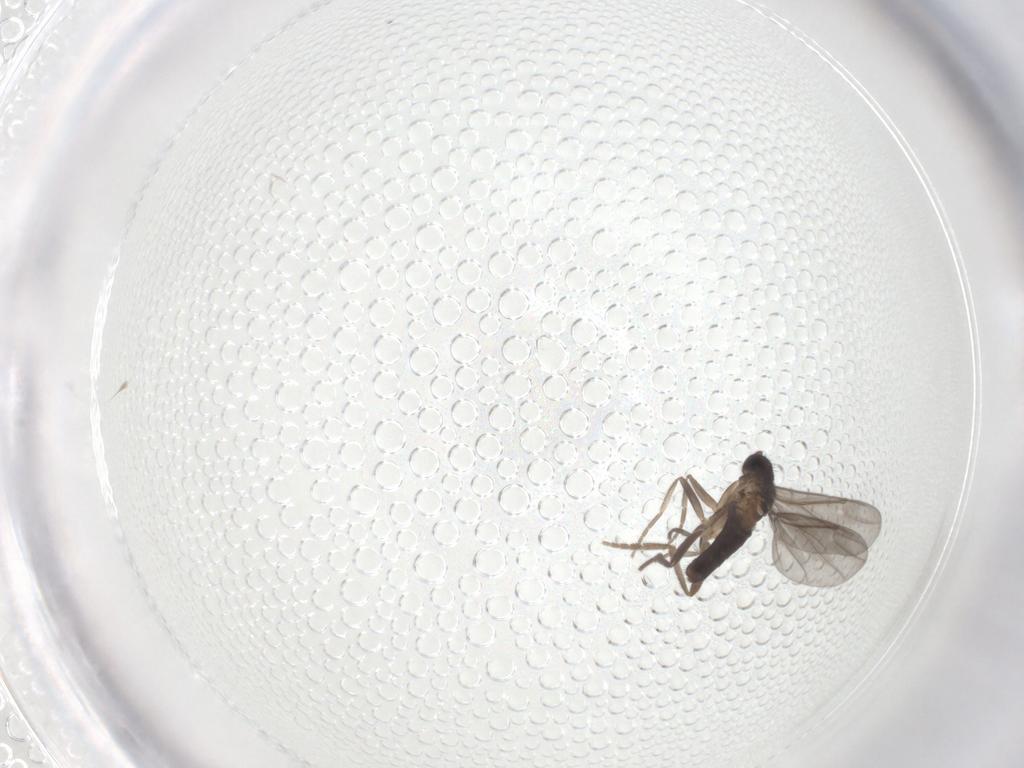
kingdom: Animalia
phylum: Arthropoda
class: Insecta
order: Diptera
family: Phoridae
